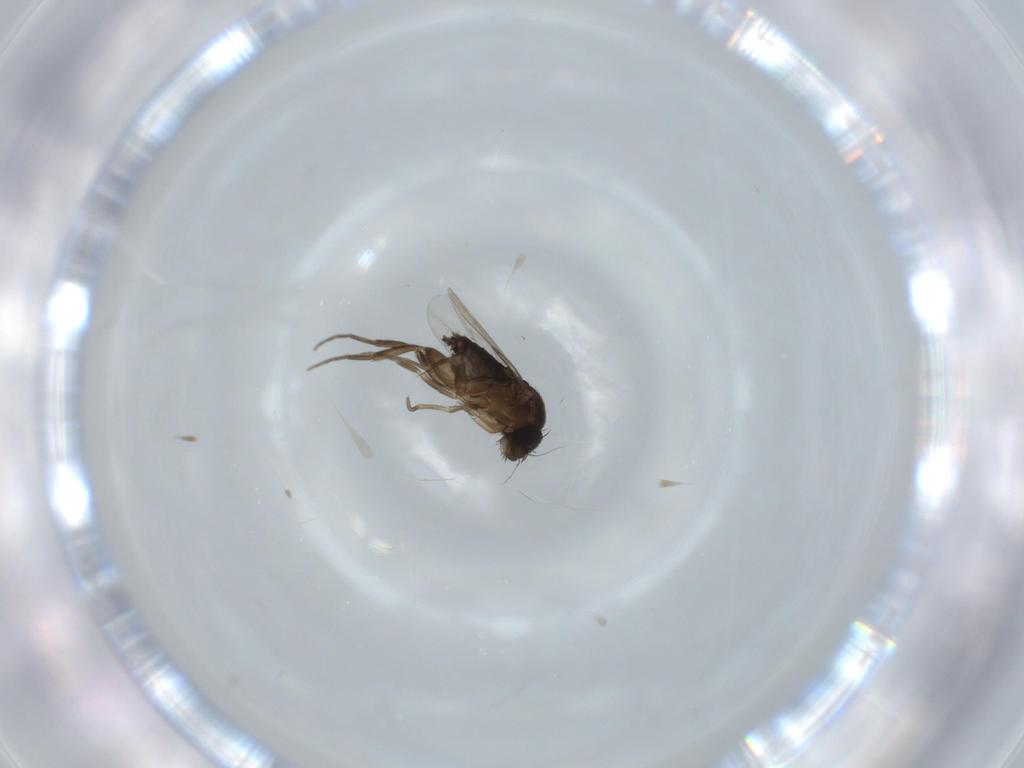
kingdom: Animalia
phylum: Arthropoda
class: Insecta
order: Diptera
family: Phoridae
